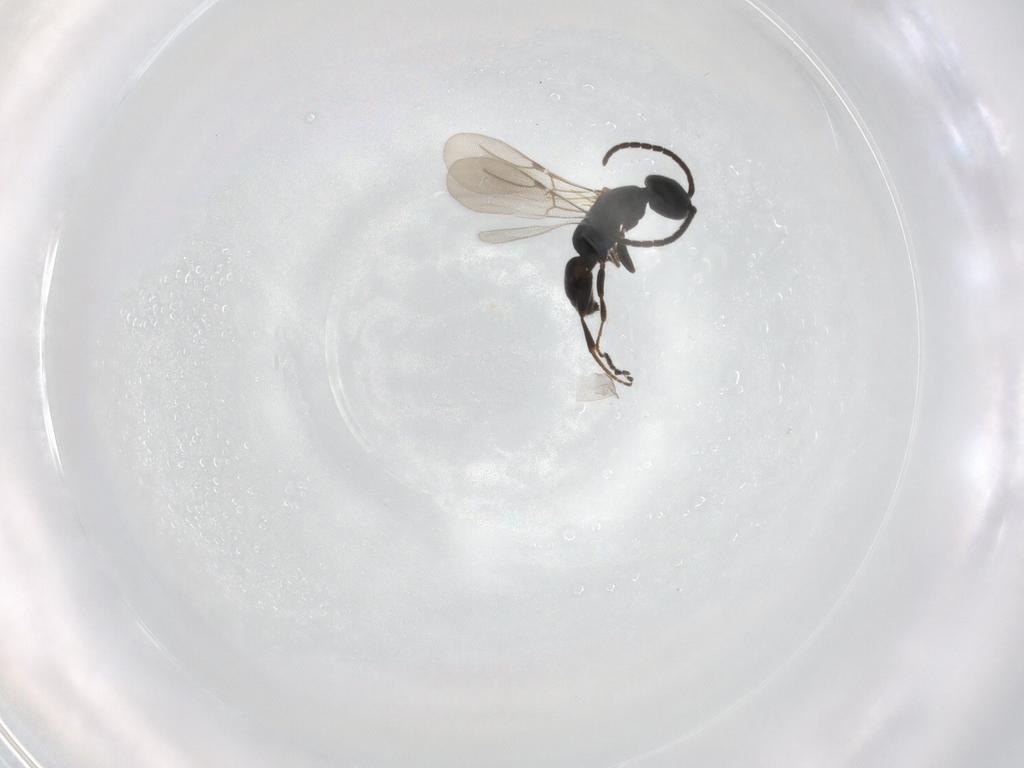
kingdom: Animalia
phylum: Arthropoda
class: Insecta
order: Hymenoptera
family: Bethylidae
